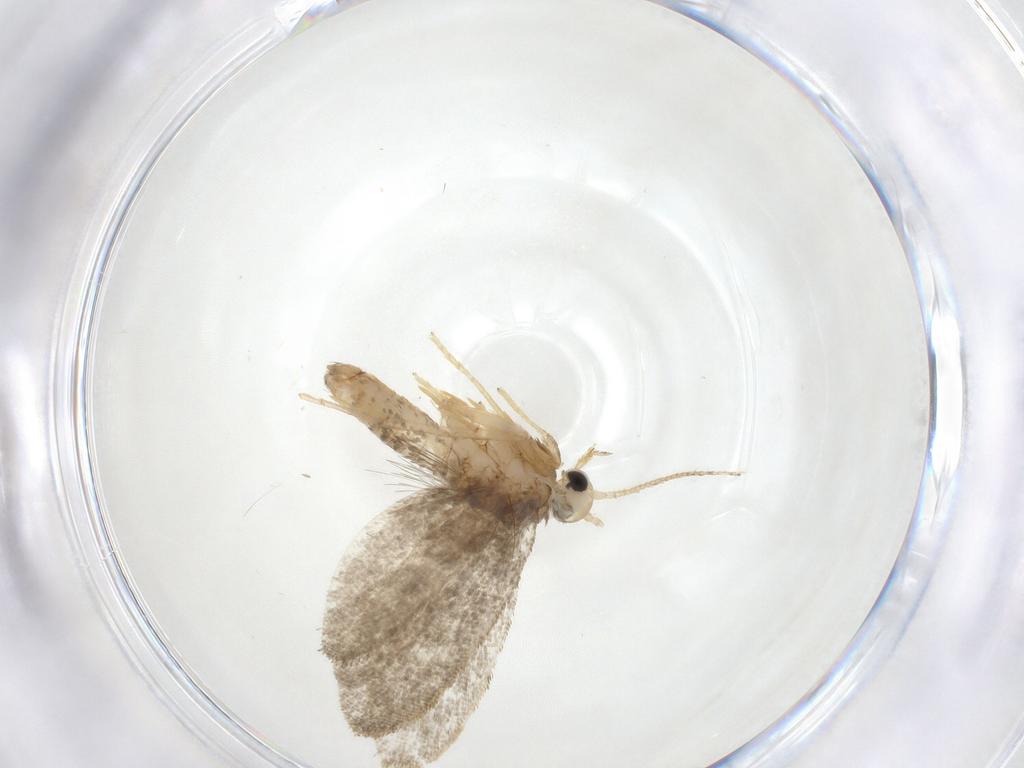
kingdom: Animalia
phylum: Arthropoda
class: Insecta
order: Lepidoptera
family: Psychidae
